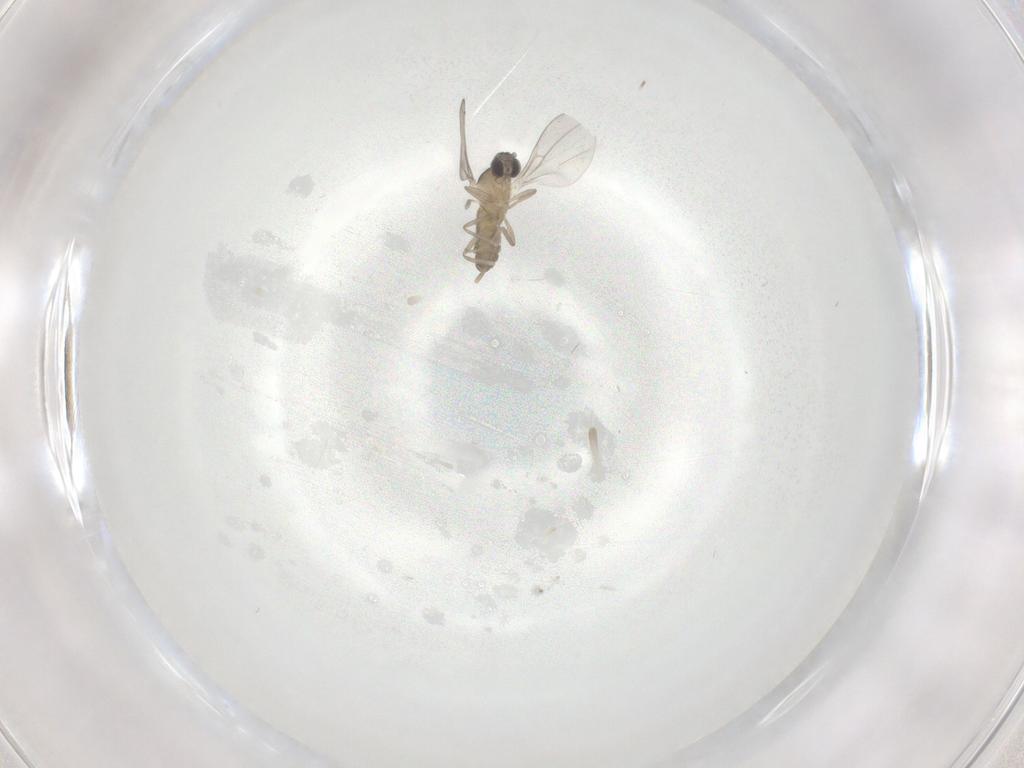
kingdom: Animalia
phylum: Arthropoda
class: Insecta
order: Diptera
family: Cecidomyiidae
